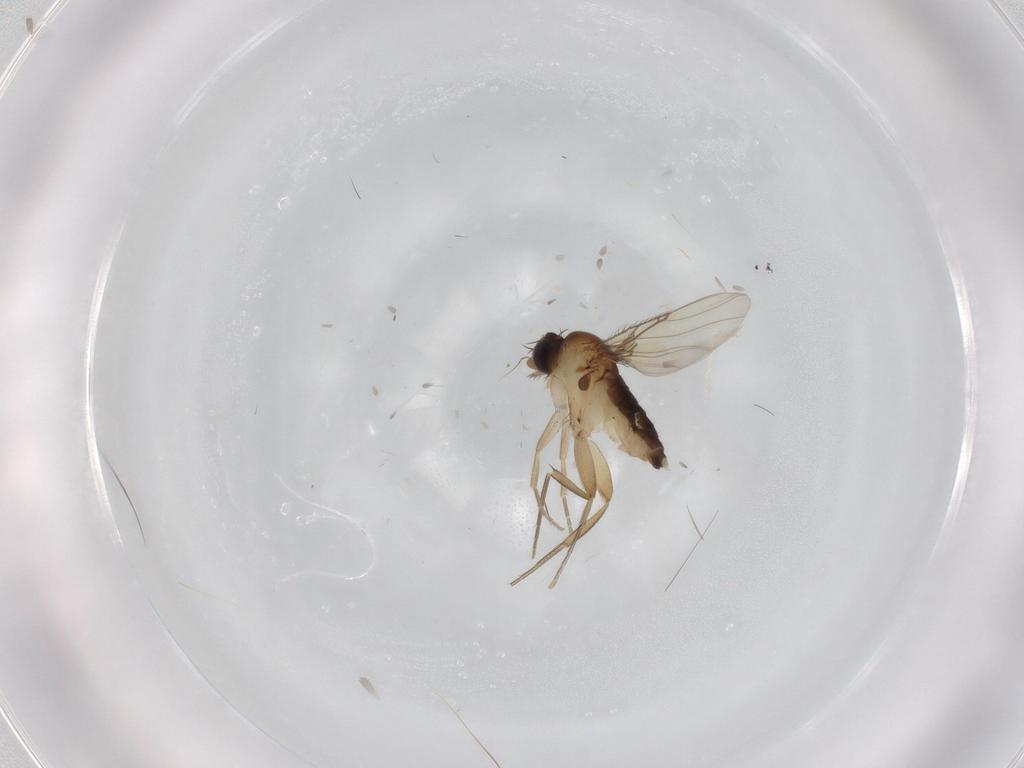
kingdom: Animalia
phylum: Arthropoda
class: Insecta
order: Diptera
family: Phoridae
